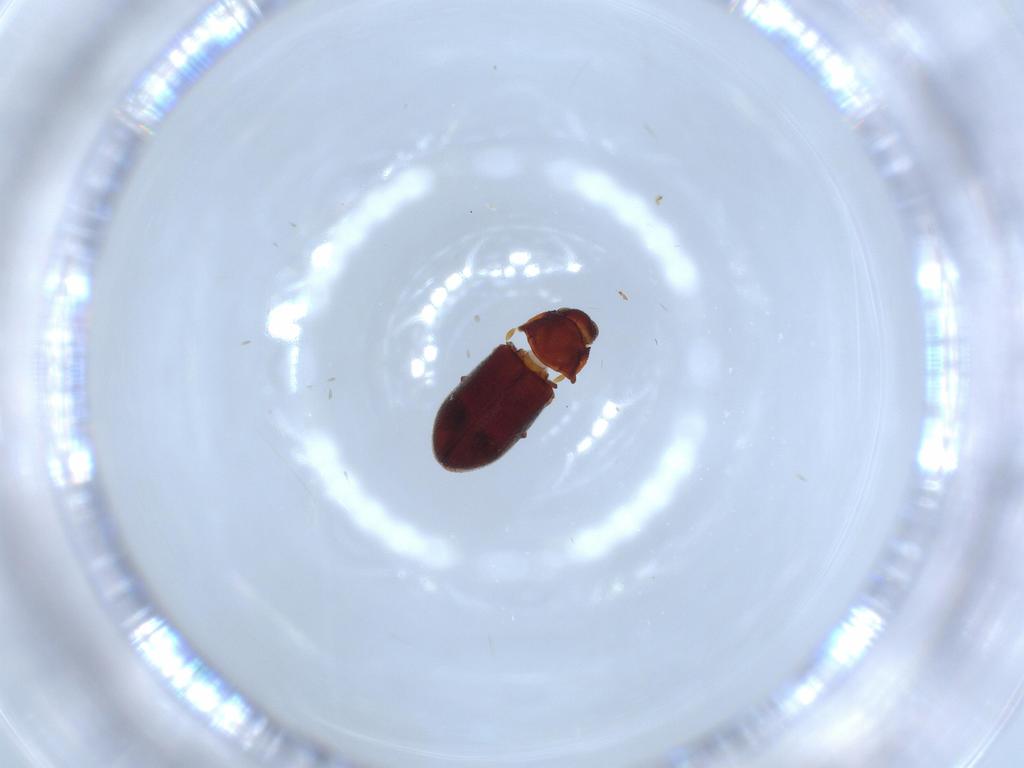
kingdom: Animalia
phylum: Arthropoda
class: Insecta
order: Coleoptera
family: Anobiidae
